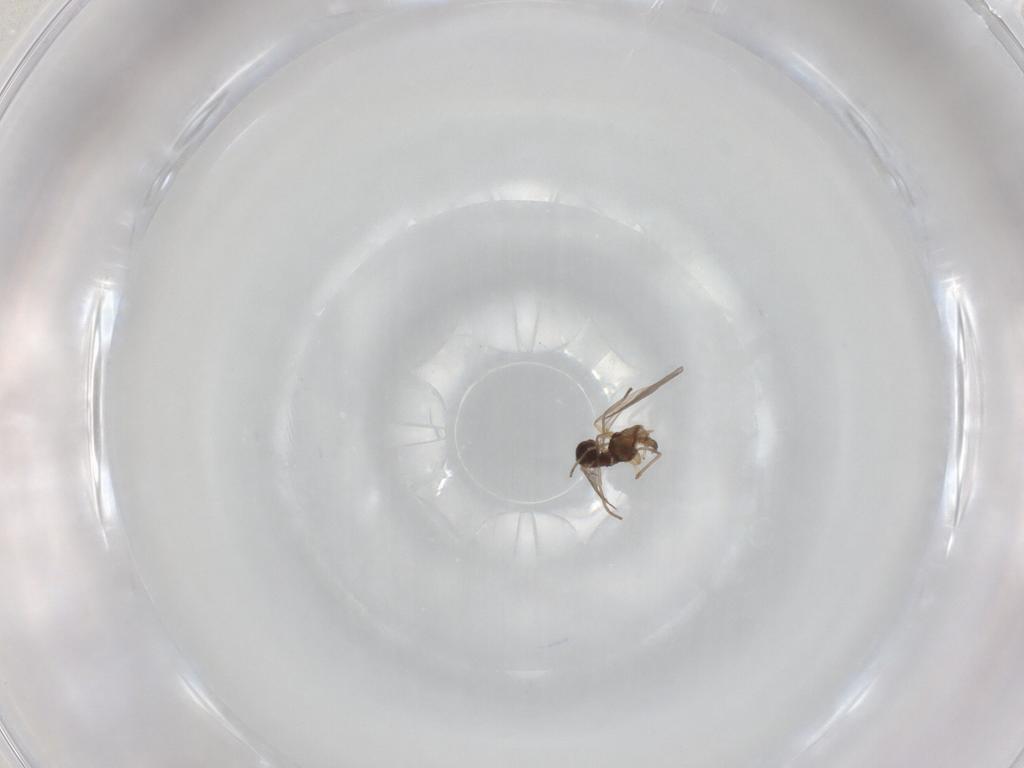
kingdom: Animalia
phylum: Arthropoda
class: Insecta
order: Diptera
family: Sciaridae
